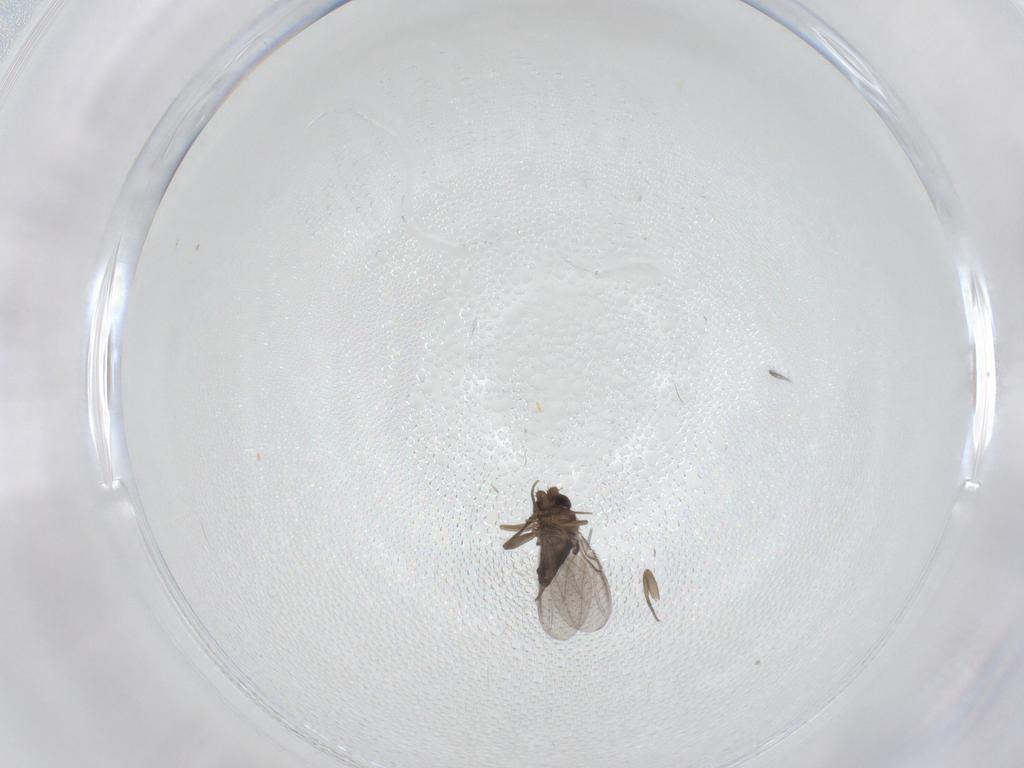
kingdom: Animalia
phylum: Arthropoda
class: Insecta
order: Diptera
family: Phoridae
